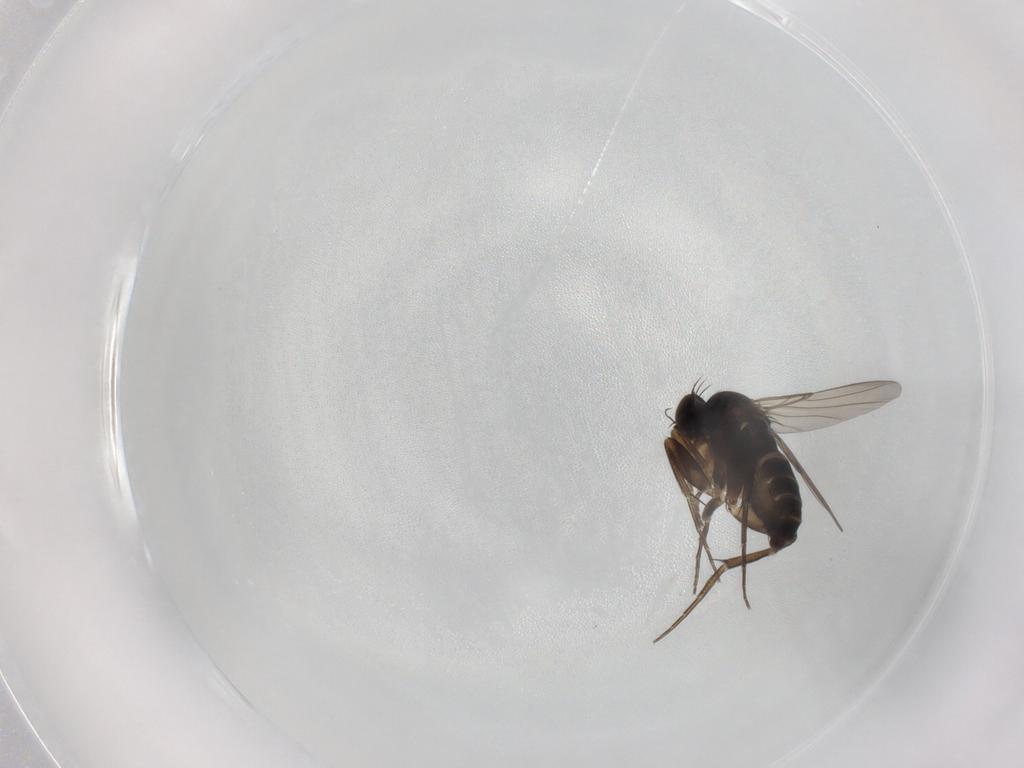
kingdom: Animalia
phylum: Arthropoda
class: Insecta
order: Diptera
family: Phoridae
